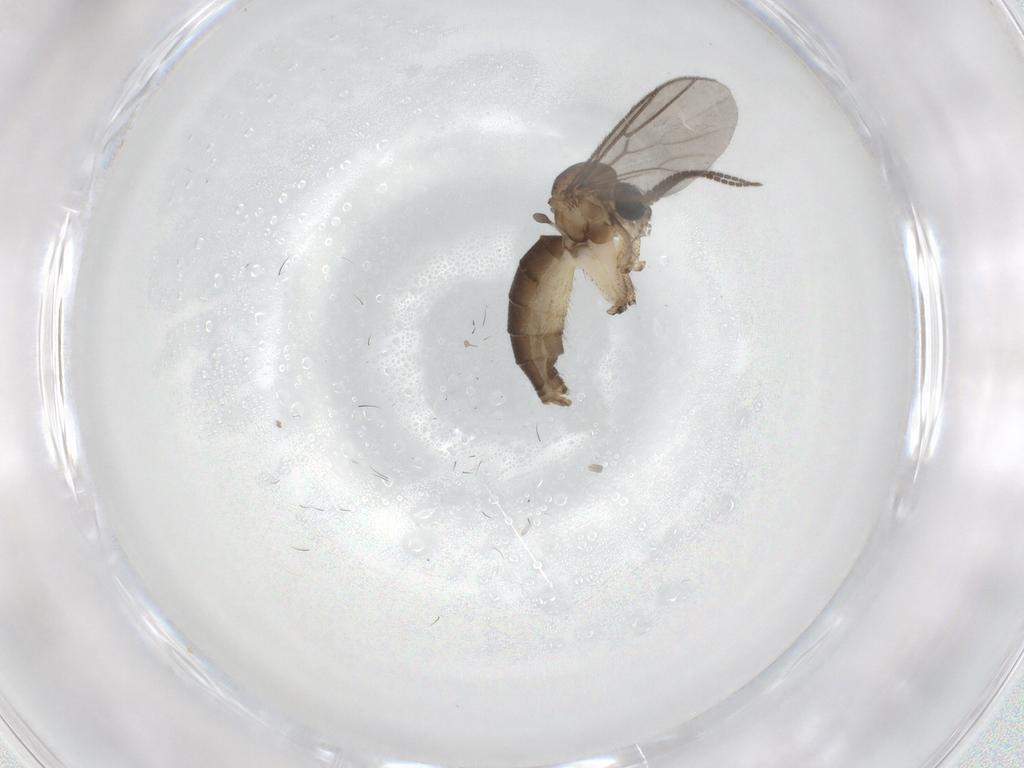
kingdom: Animalia
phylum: Arthropoda
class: Insecta
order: Diptera
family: Mycetophilidae
